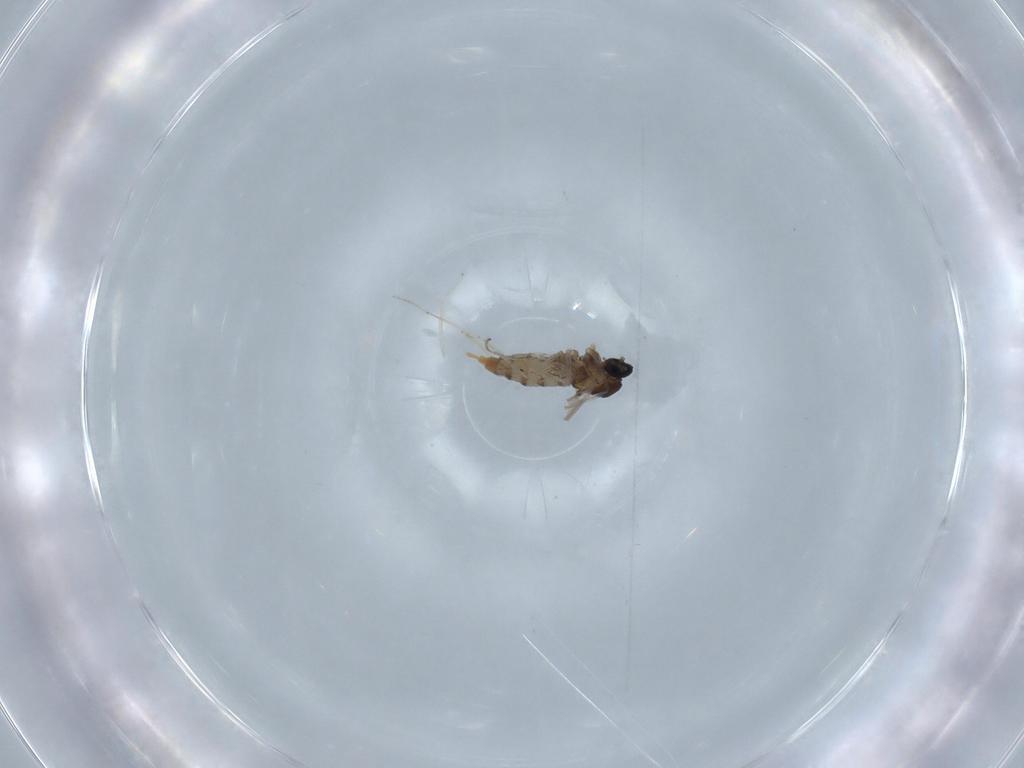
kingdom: Animalia
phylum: Arthropoda
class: Insecta
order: Diptera
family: Cecidomyiidae
